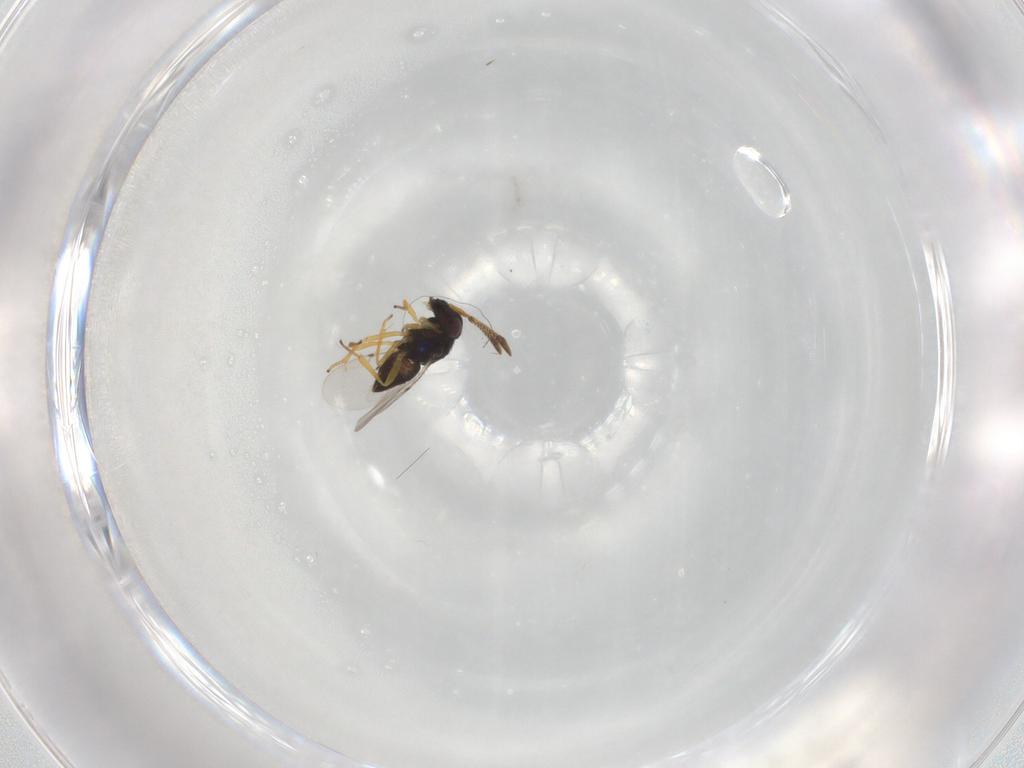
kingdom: Animalia
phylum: Arthropoda
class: Insecta
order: Hymenoptera
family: Encyrtidae
